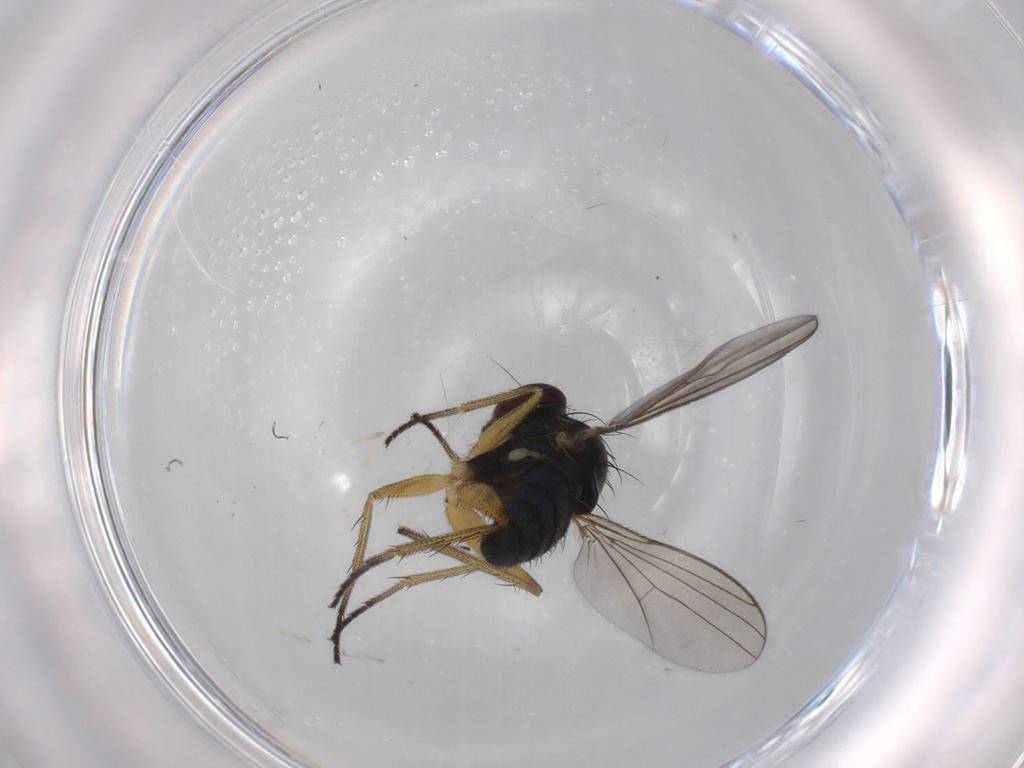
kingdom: Animalia
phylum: Arthropoda
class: Insecta
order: Diptera
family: Dolichopodidae
